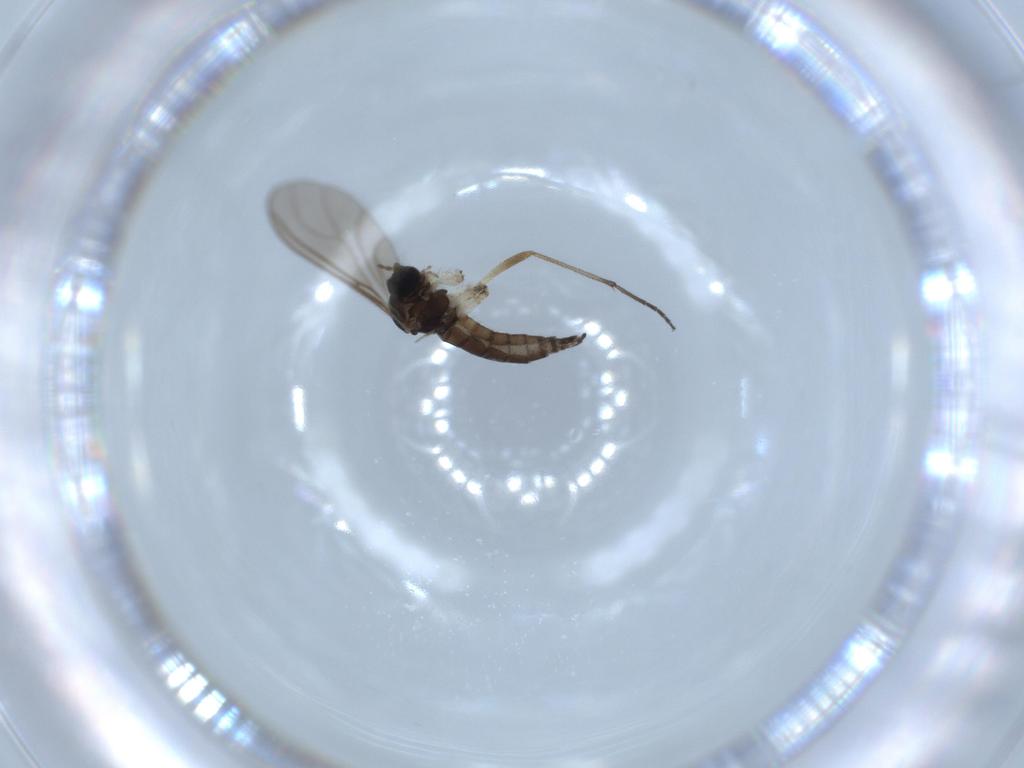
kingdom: Animalia
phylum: Arthropoda
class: Insecta
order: Diptera
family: Sciaridae
